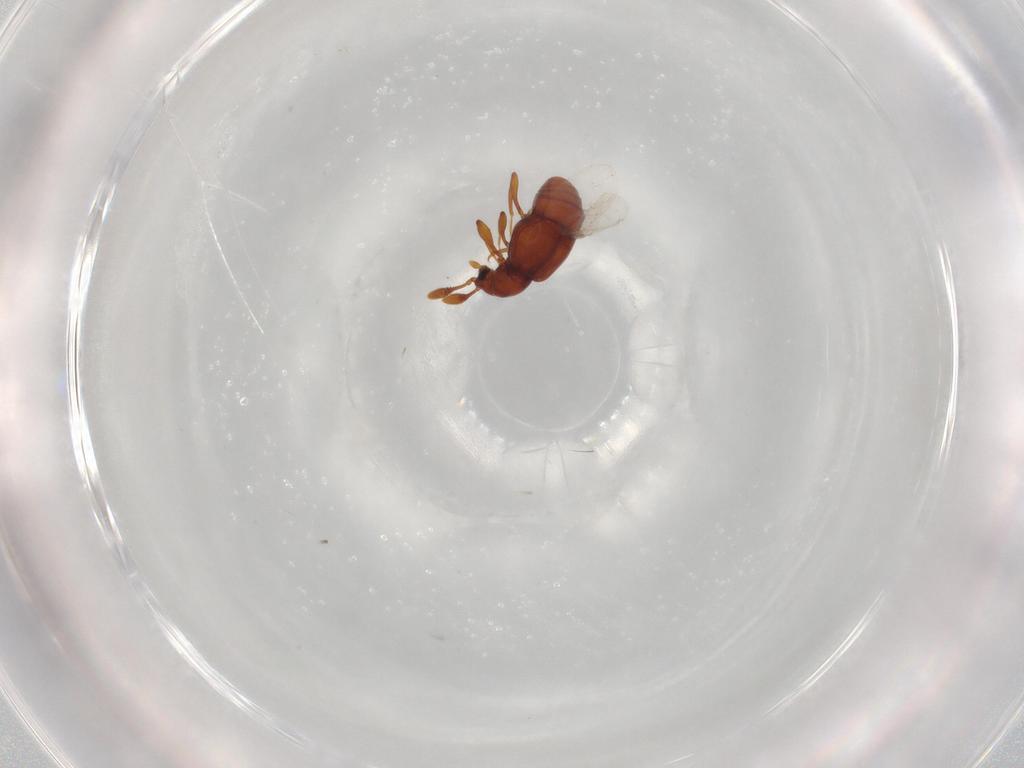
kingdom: Animalia
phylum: Arthropoda
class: Insecta
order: Coleoptera
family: Staphylinidae
